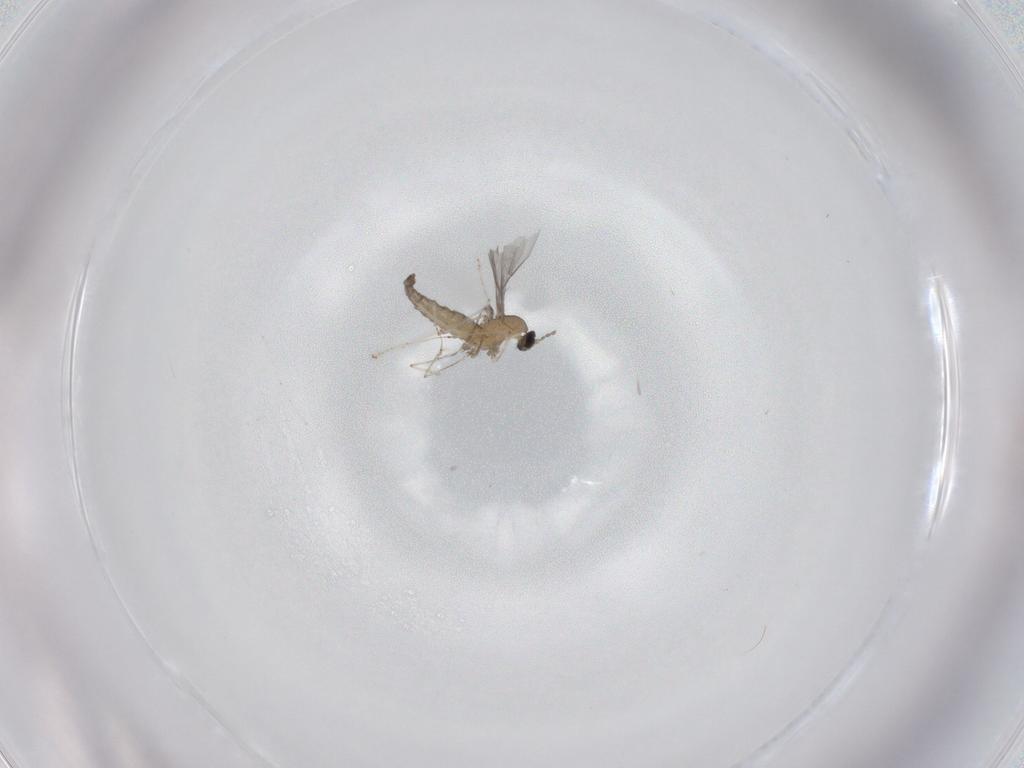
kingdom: Animalia
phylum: Arthropoda
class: Insecta
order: Diptera
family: Cecidomyiidae
